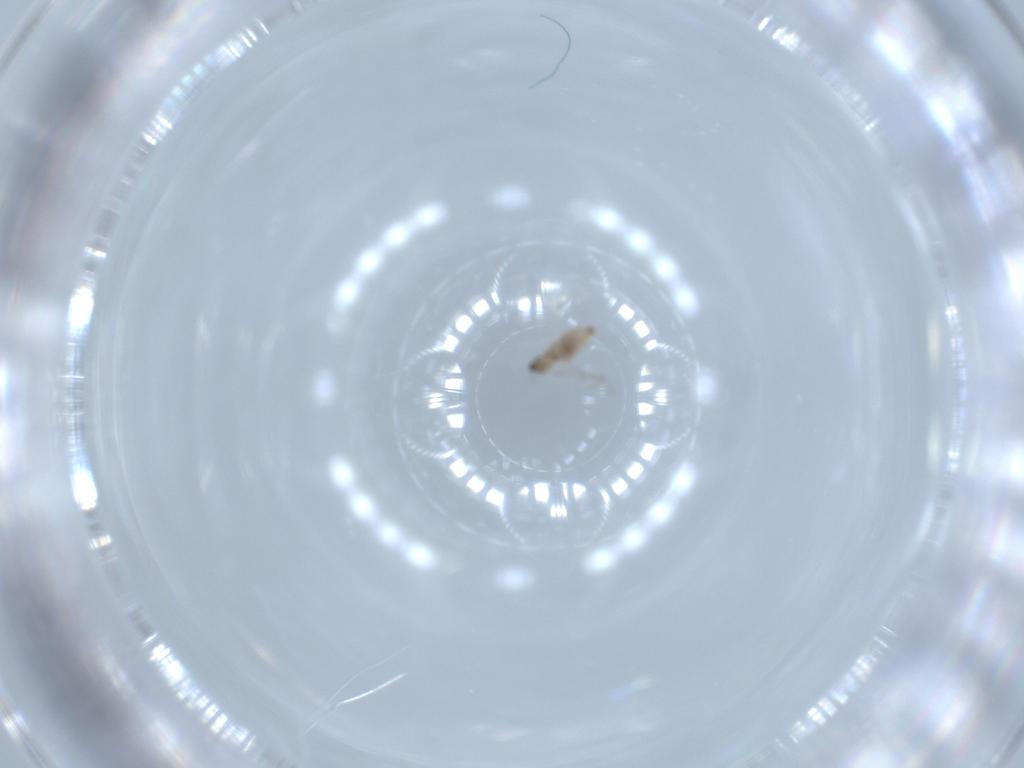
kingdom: Animalia
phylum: Arthropoda
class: Insecta
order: Diptera
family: Cecidomyiidae
